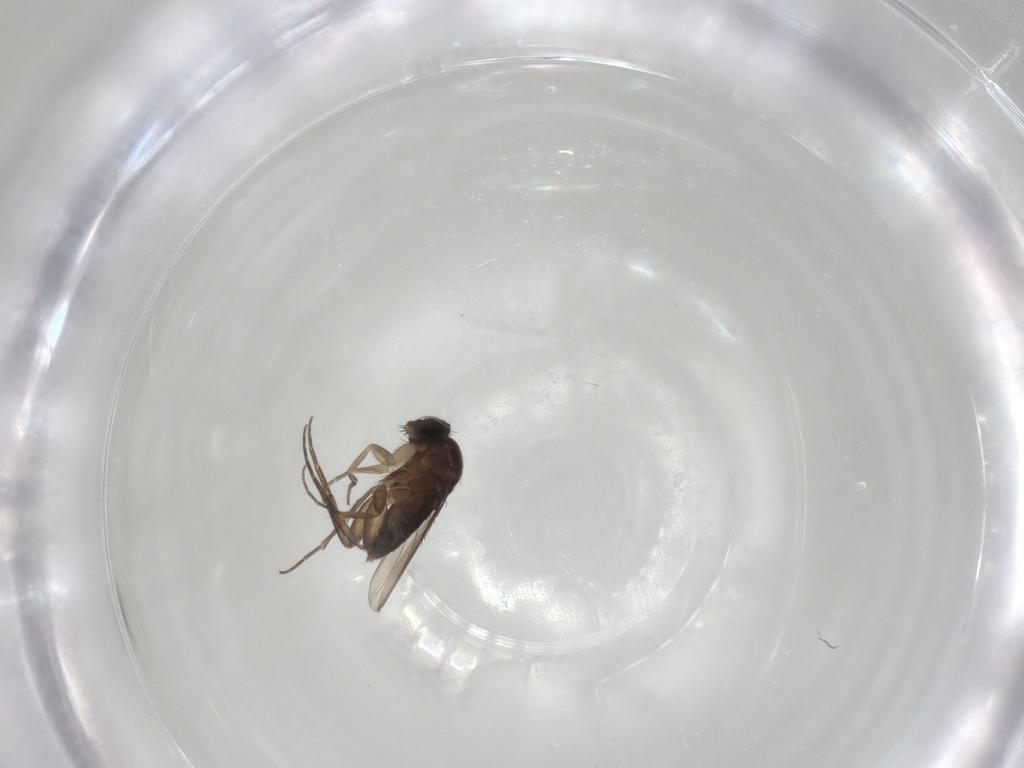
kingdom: Animalia
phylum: Arthropoda
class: Insecta
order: Diptera
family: Phoridae
